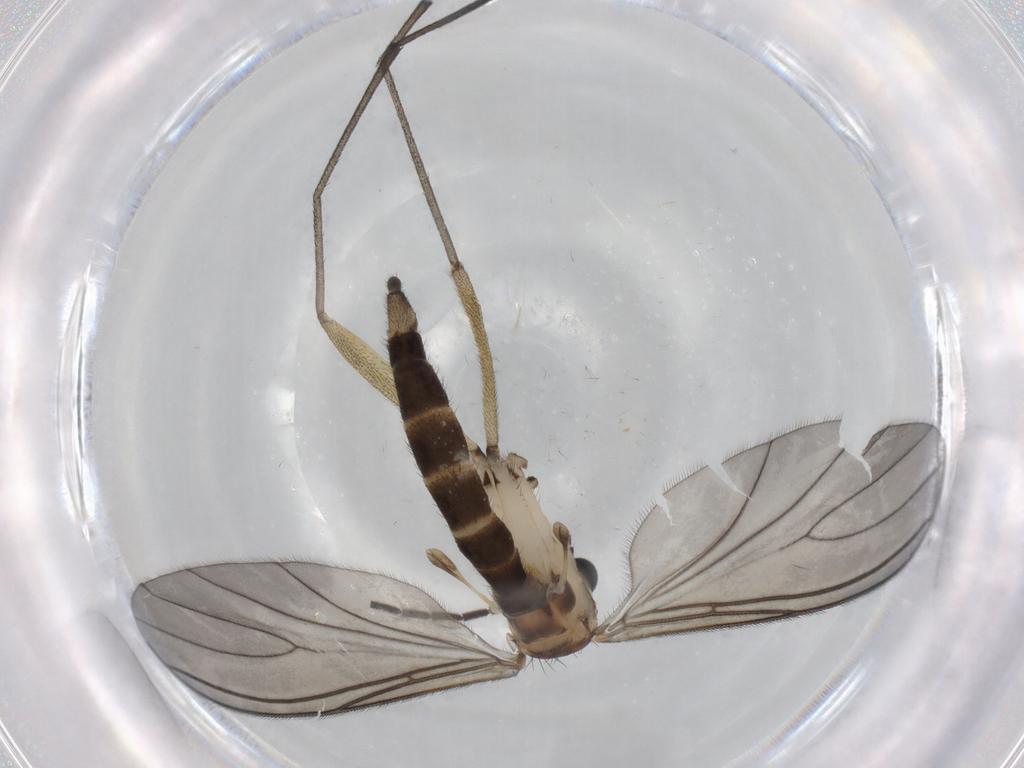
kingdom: Animalia
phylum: Arthropoda
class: Insecta
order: Diptera
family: Sciaridae
